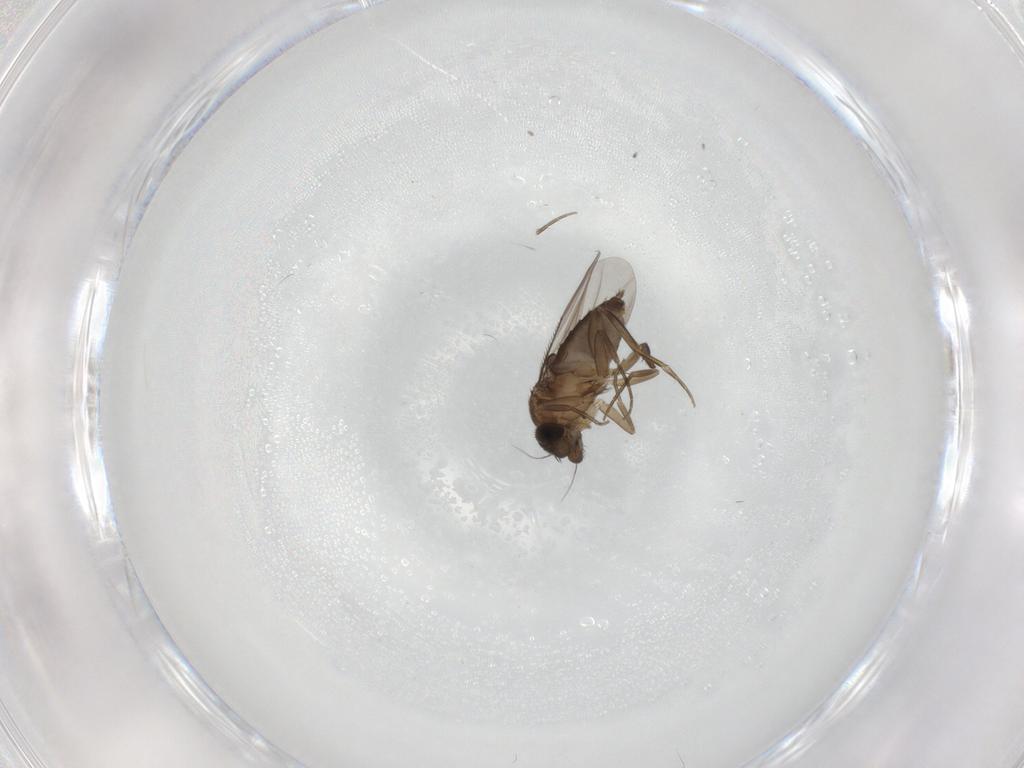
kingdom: Animalia
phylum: Arthropoda
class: Insecta
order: Diptera
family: Phoridae
